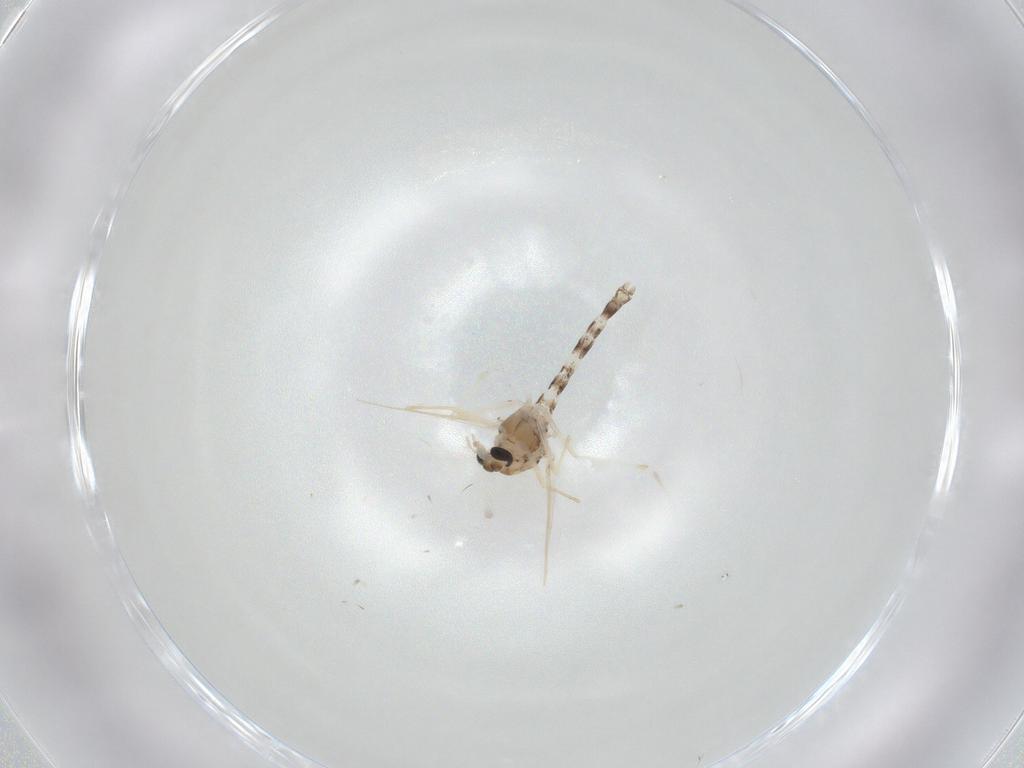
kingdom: Animalia
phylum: Arthropoda
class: Insecta
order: Diptera
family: Chironomidae
